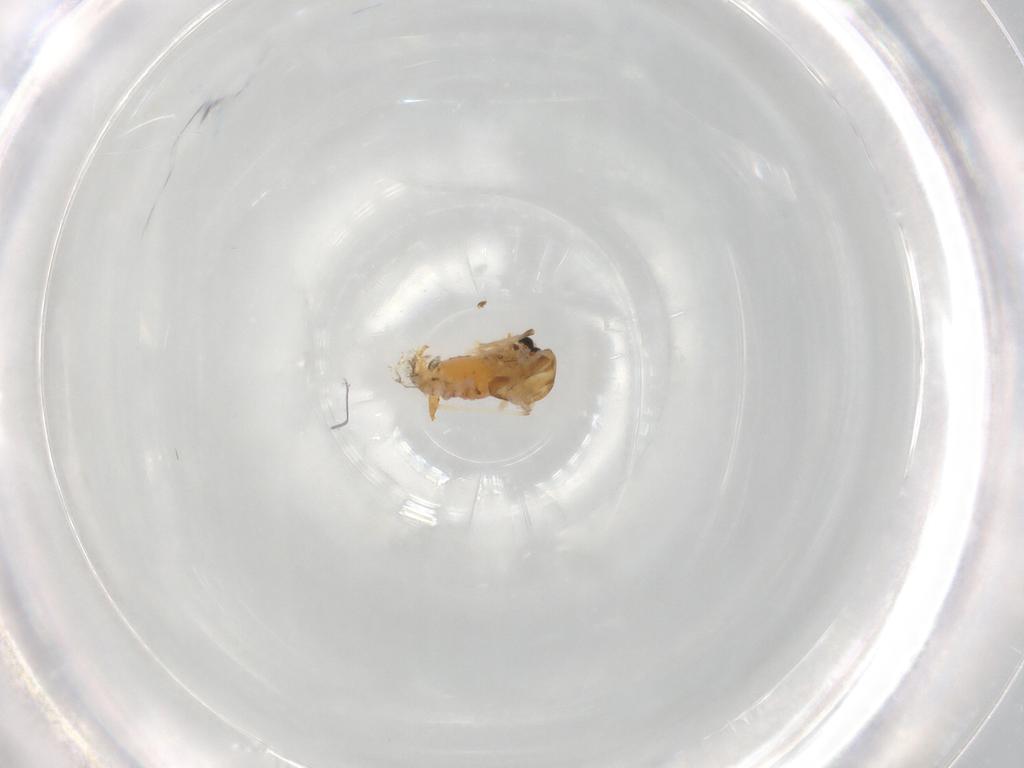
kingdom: Animalia
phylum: Arthropoda
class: Insecta
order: Diptera
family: Chironomidae
